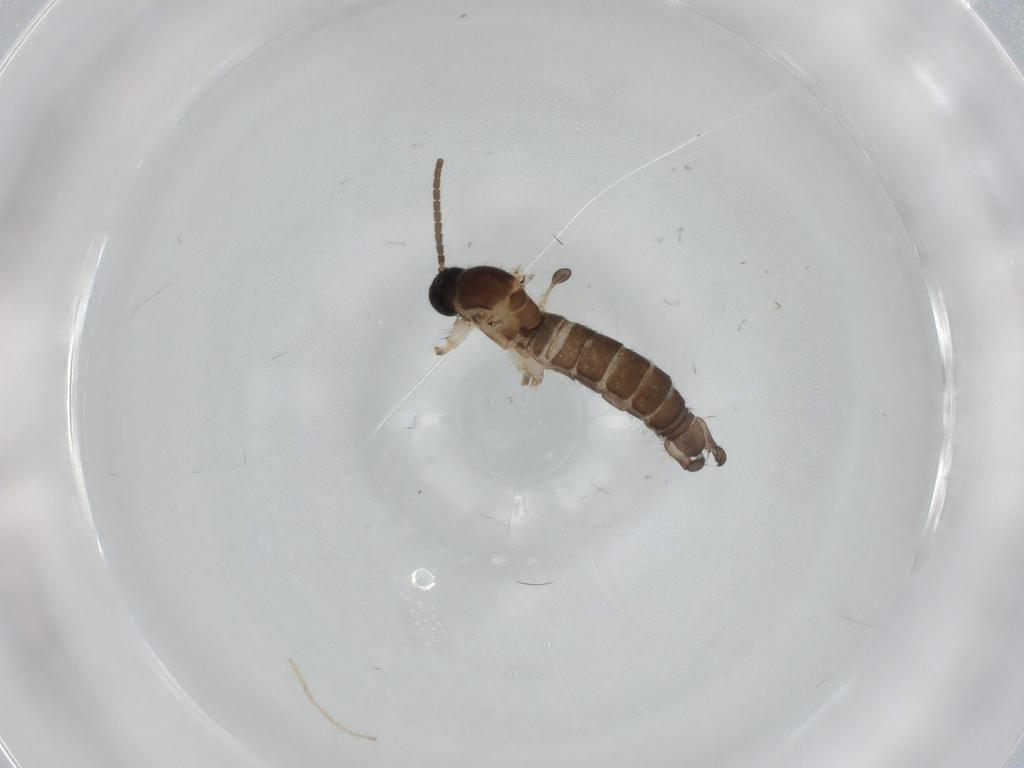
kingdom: Animalia
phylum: Arthropoda
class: Insecta
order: Diptera
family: Sciaridae
